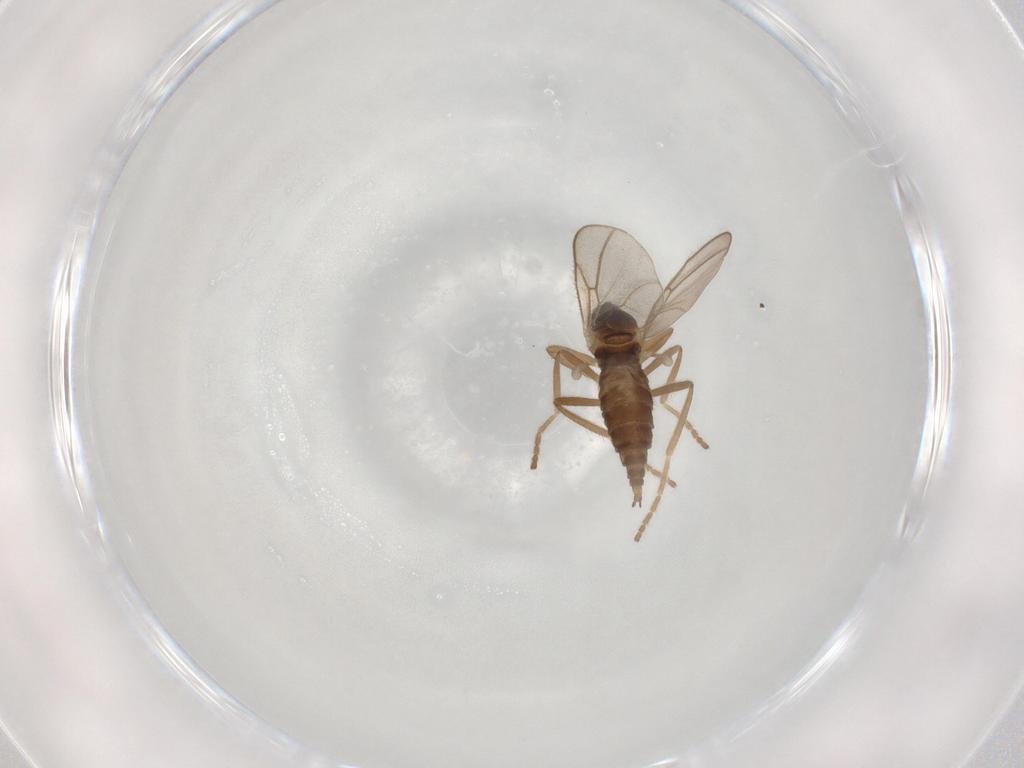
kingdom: Animalia
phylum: Arthropoda
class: Insecta
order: Diptera
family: Cecidomyiidae
